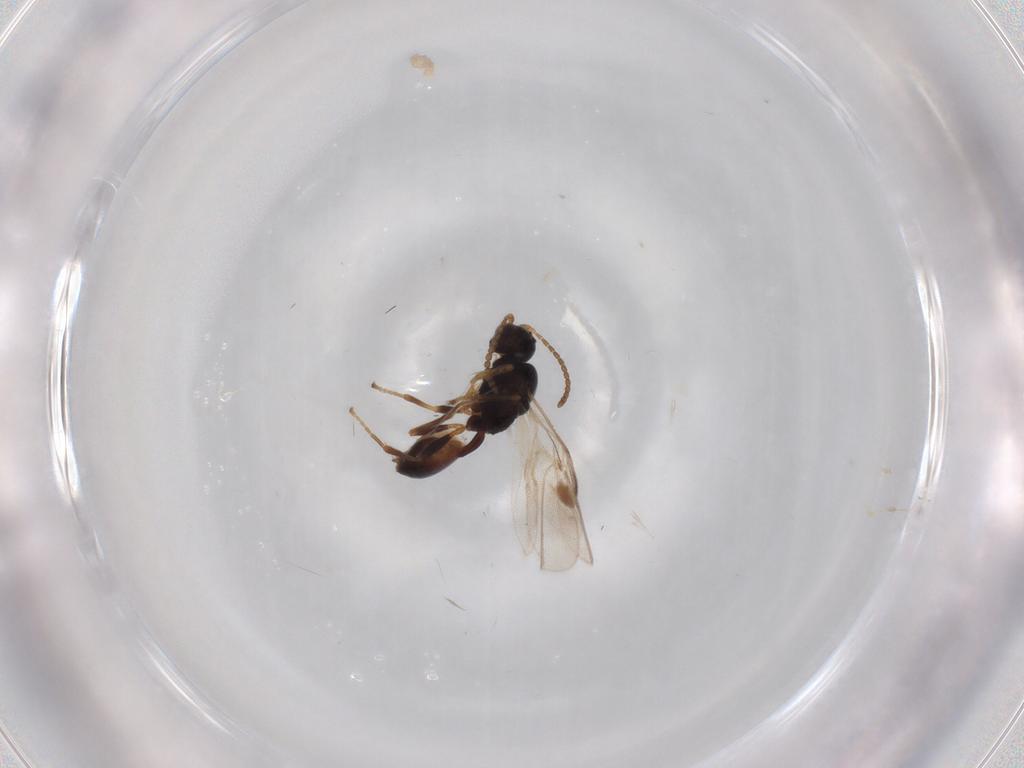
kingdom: Animalia
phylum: Arthropoda
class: Insecta
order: Hymenoptera
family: Braconidae
